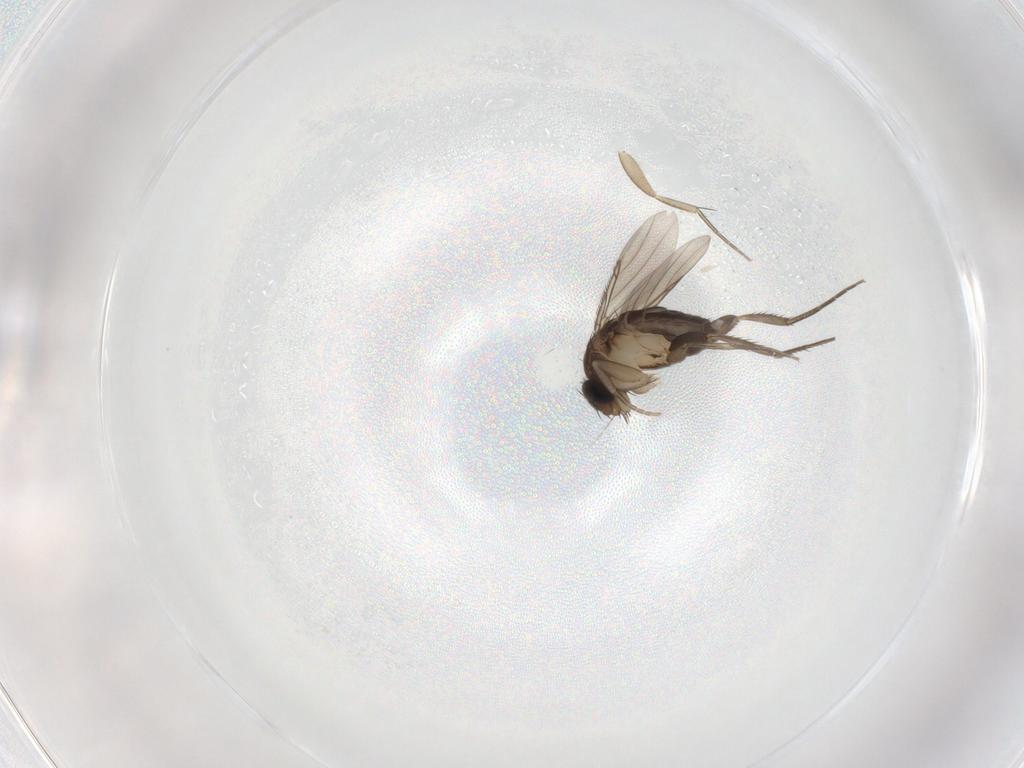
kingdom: Animalia
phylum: Arthropoda
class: Insecta
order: Diptera
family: Phoridae
